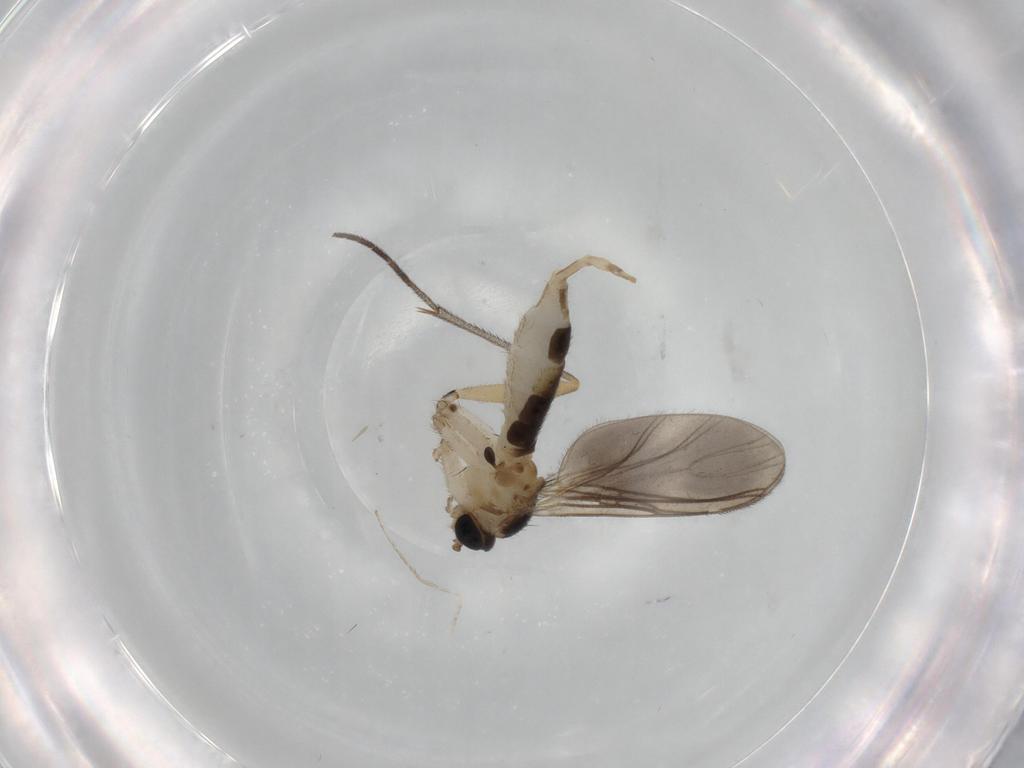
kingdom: Animalia
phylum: Arthropoda
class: Insecta
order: Diptera
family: Sciaridae
